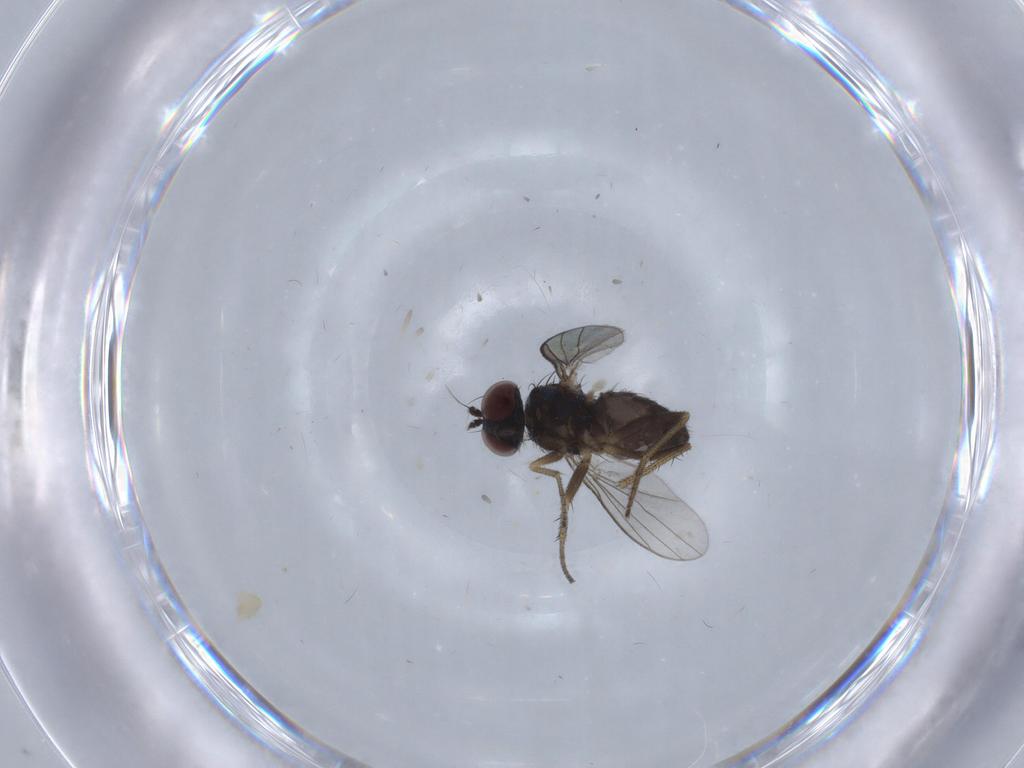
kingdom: Animalia
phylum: Arthropoda
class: Insecta
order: Diptera
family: Dolichopodidae
